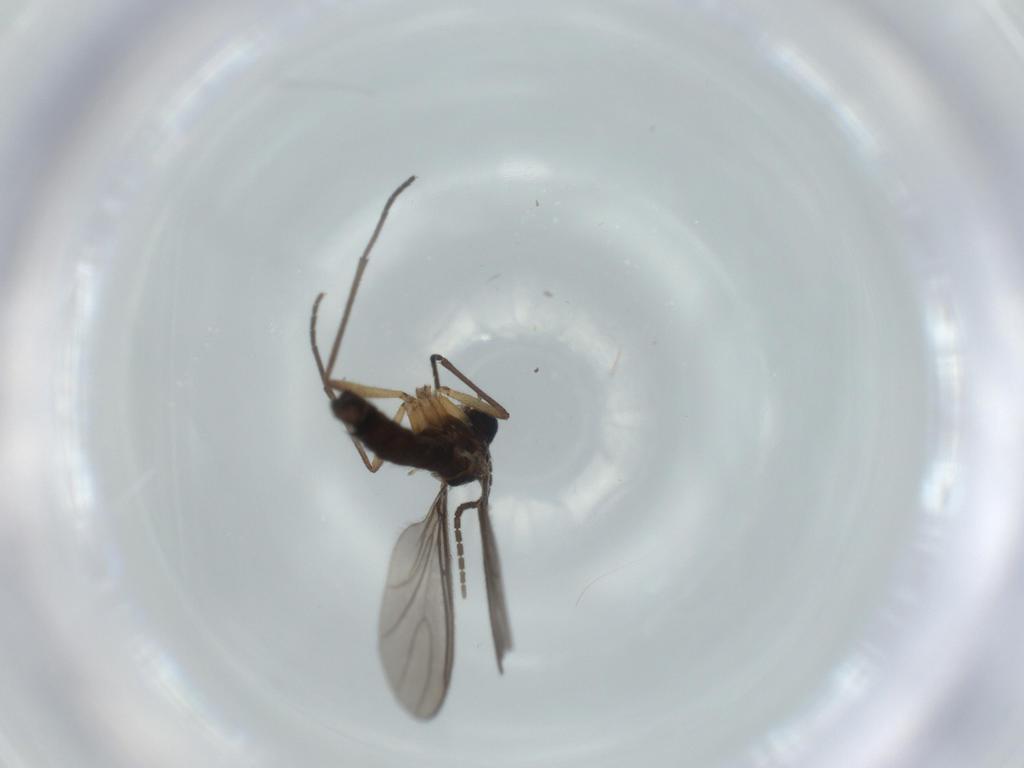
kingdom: Animalia
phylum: Arthropoda
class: Insecta
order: Diptera
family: Sciaridae
